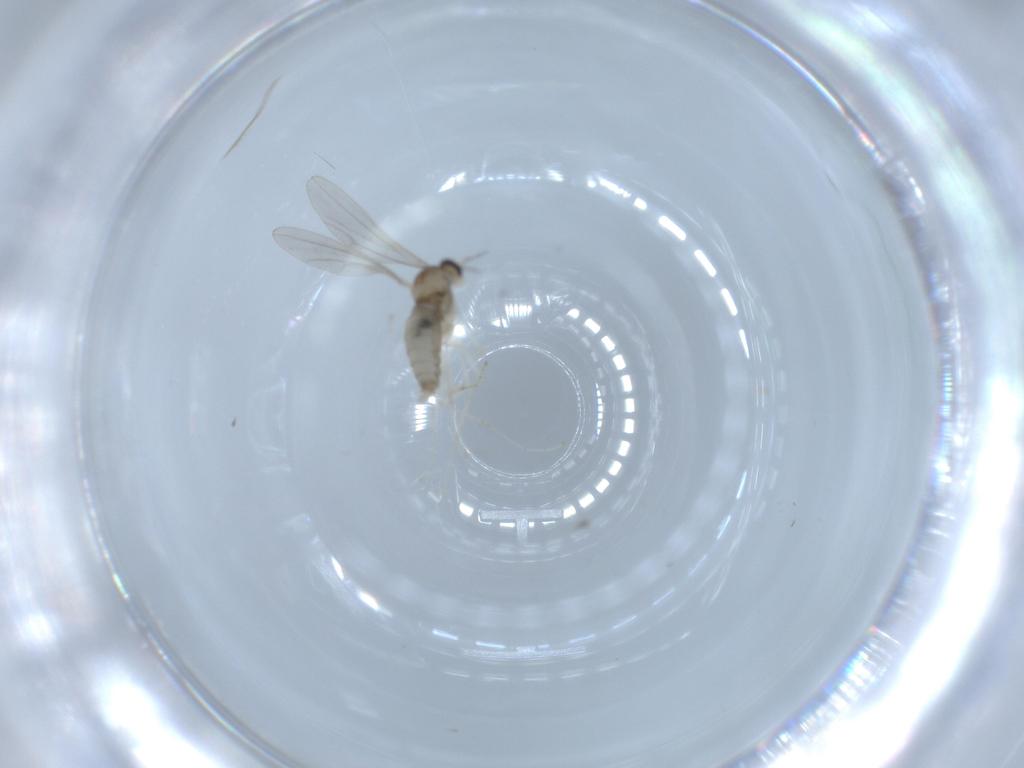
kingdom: Animalia
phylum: Arthropoda
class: Insecta
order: Diptera
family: Cecidomyiidae
